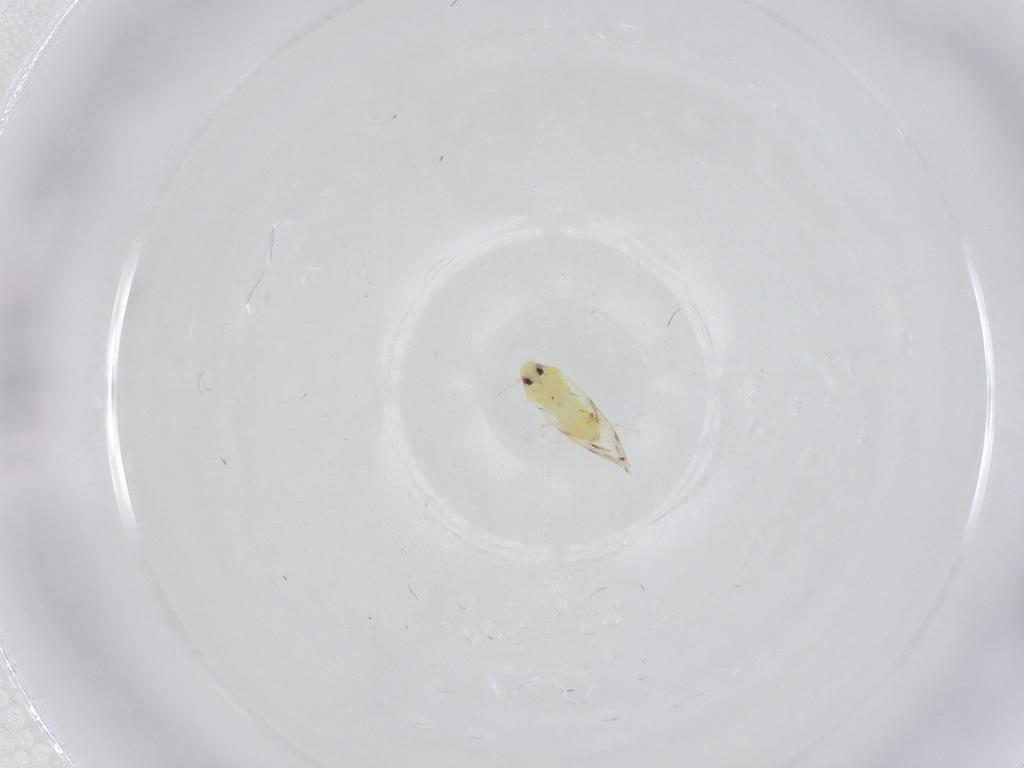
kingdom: Animalia
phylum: Arthropoda
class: Insecta
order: Hemiptera
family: Aleyrodidae
